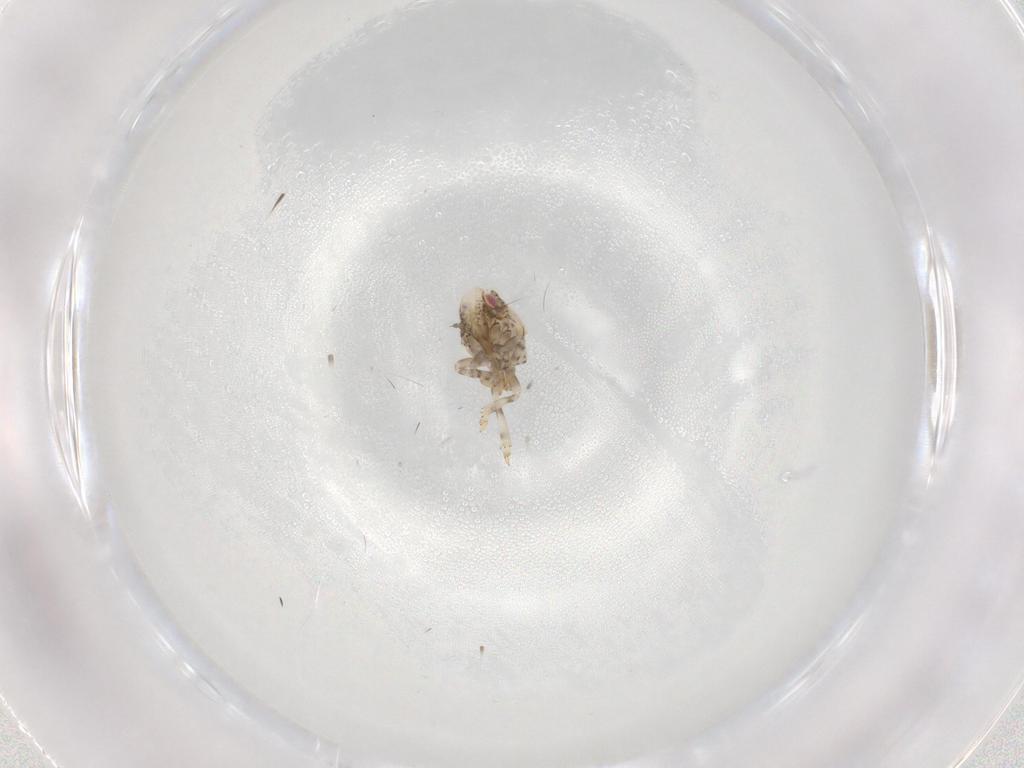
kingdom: Animalia
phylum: Arthropoda
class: Insecta
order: Hemiptera
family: Acanaloniidae
